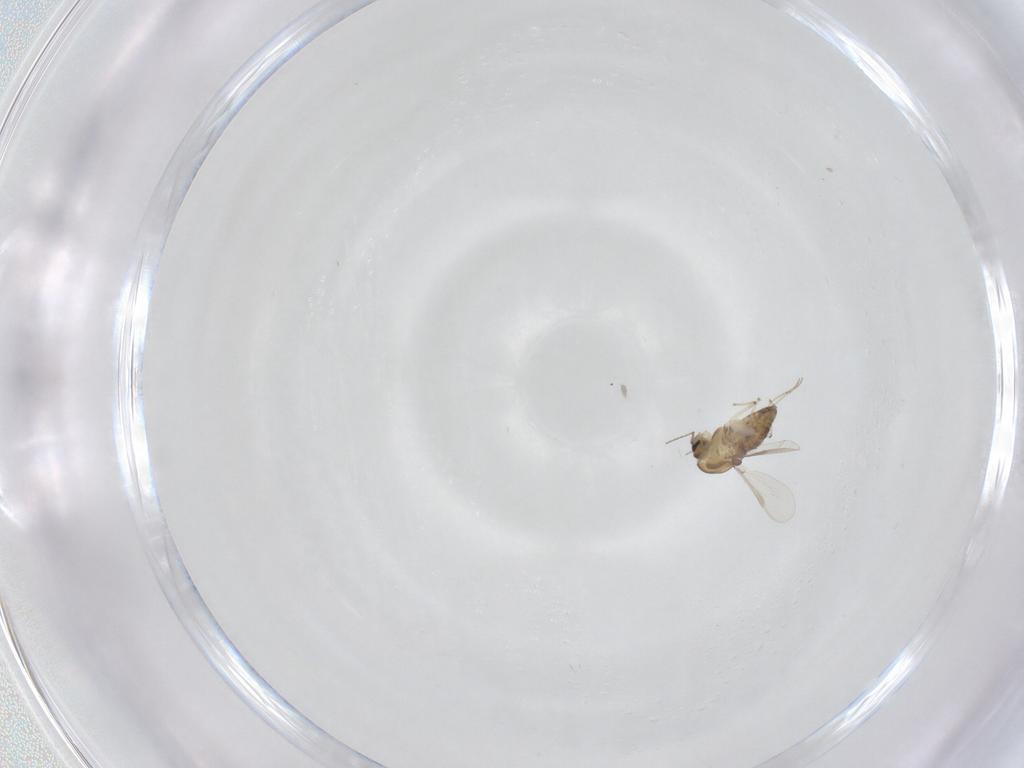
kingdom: Animalia
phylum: Arthropoda
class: Insecta
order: Diptera
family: Chironomidae
